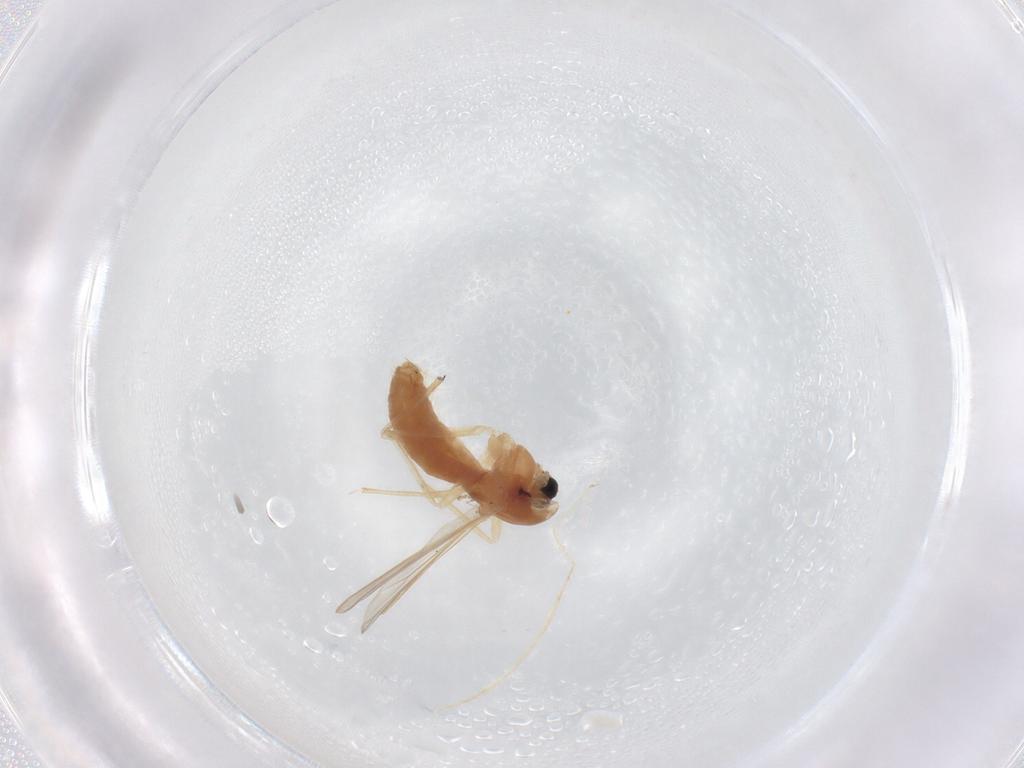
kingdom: Animalia
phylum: Arthropoda
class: Insecta
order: Diptera
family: Chironomidae
